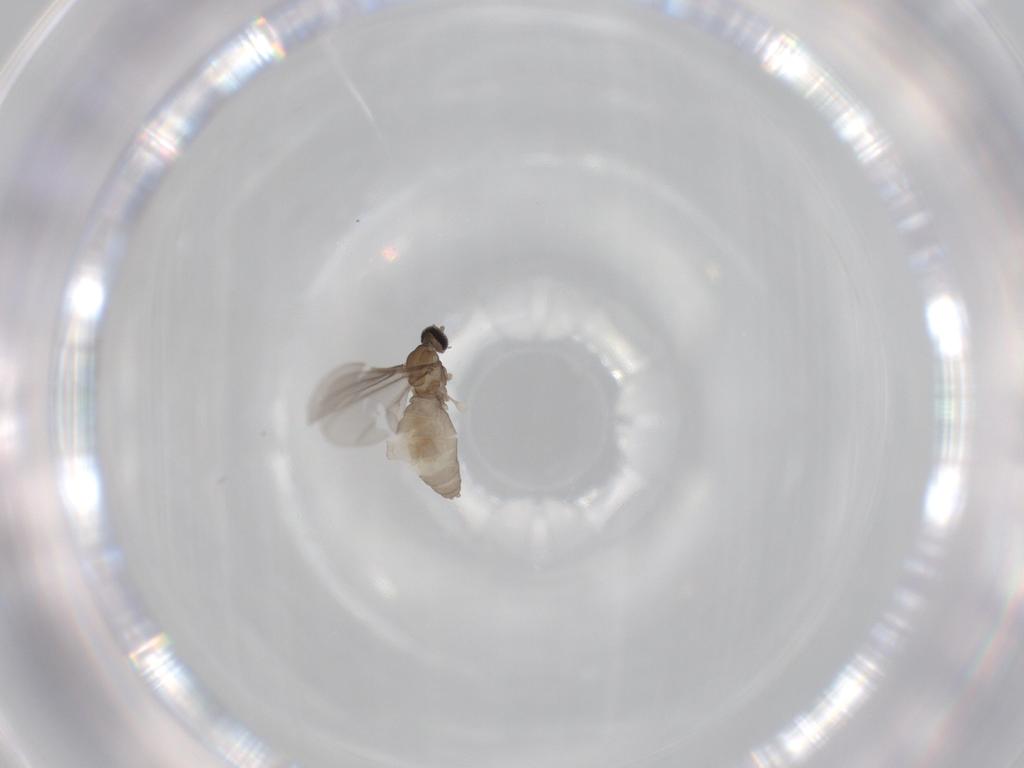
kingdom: Animalia
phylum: Arthropoda
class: Insecta
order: Diptera
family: Cecidomyiidae
